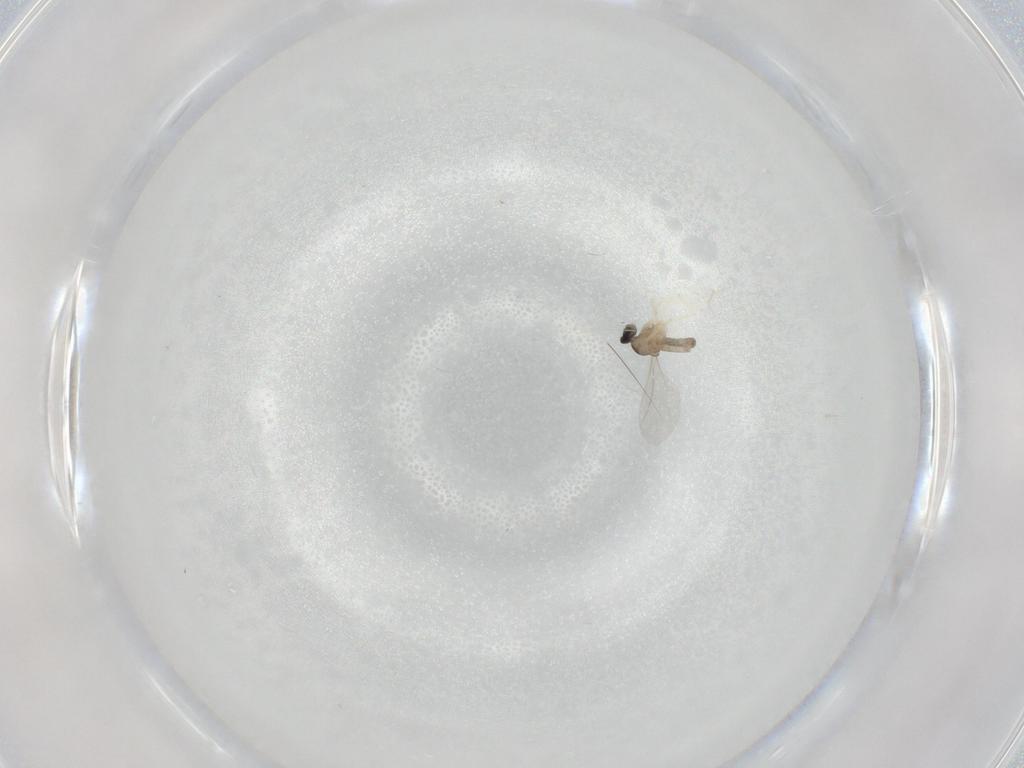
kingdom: Animalia
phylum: Arthropoda
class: Insecta
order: Diptera
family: Cecidomyiidae
